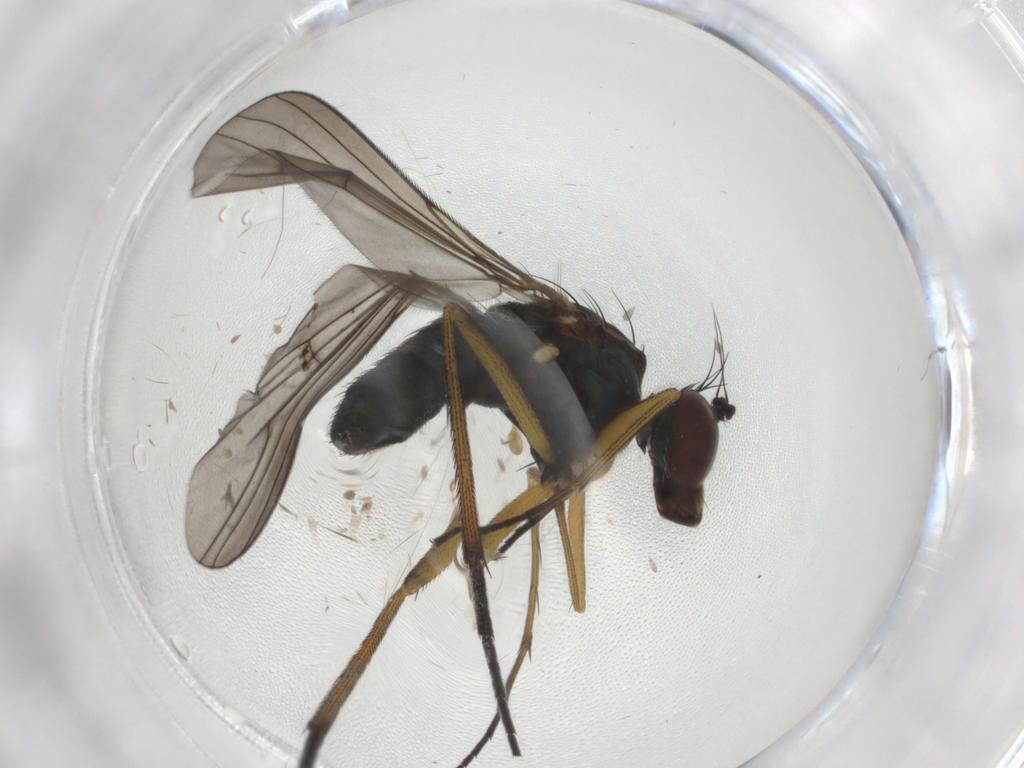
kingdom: Animalia
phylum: Arthropoda
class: Insecta
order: Diptera
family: Dolichopodidae
